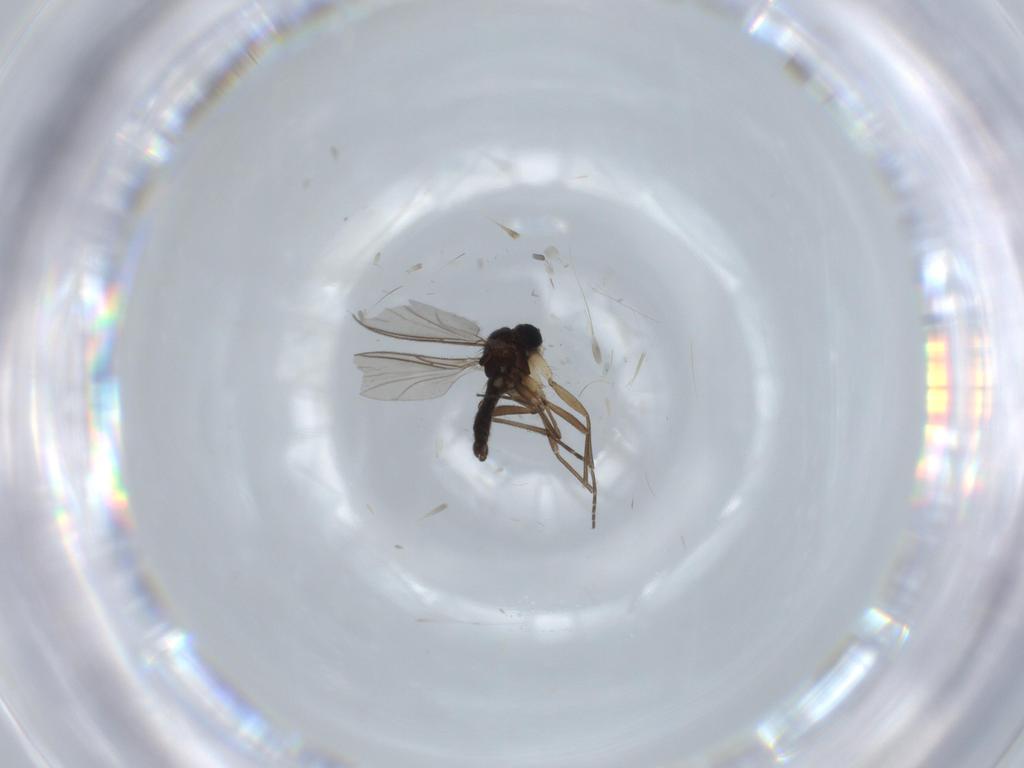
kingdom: Animalia
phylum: Arthropoda
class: Insecta
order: Diptera
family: Sciaridae
